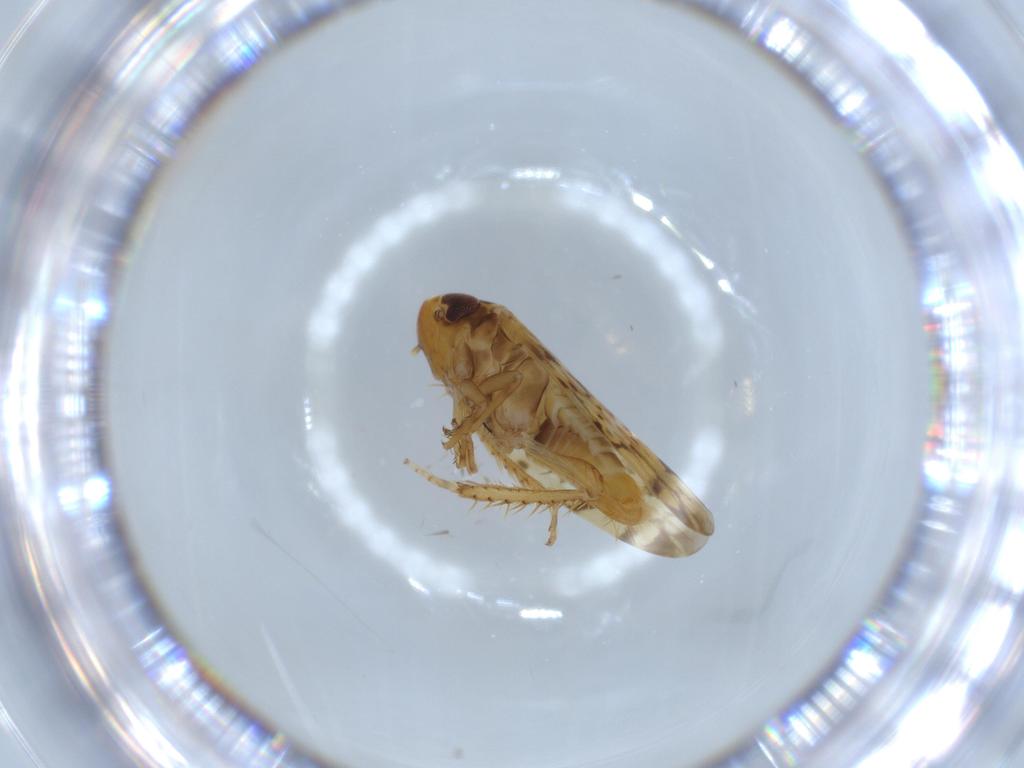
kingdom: Animalia
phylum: Arthropoda
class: Insecta
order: Hemiptera
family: Cicadellidae
